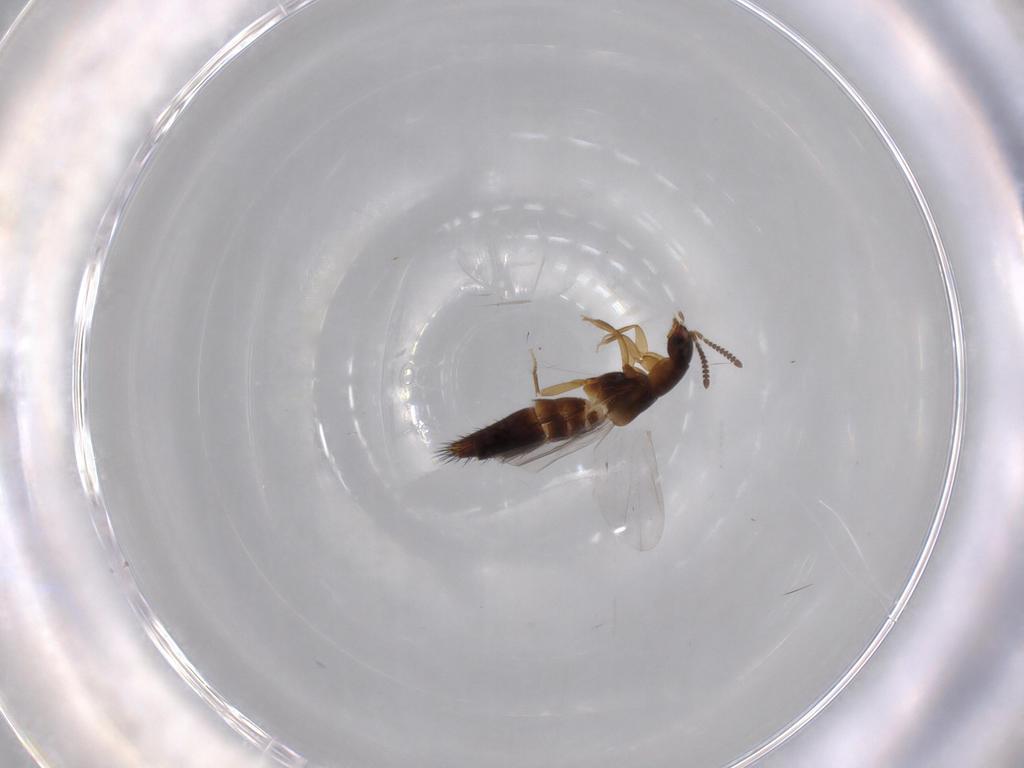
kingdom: Animalia
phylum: Arthropoda
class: Insecta
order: Coleoptera
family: Staphylinidae
